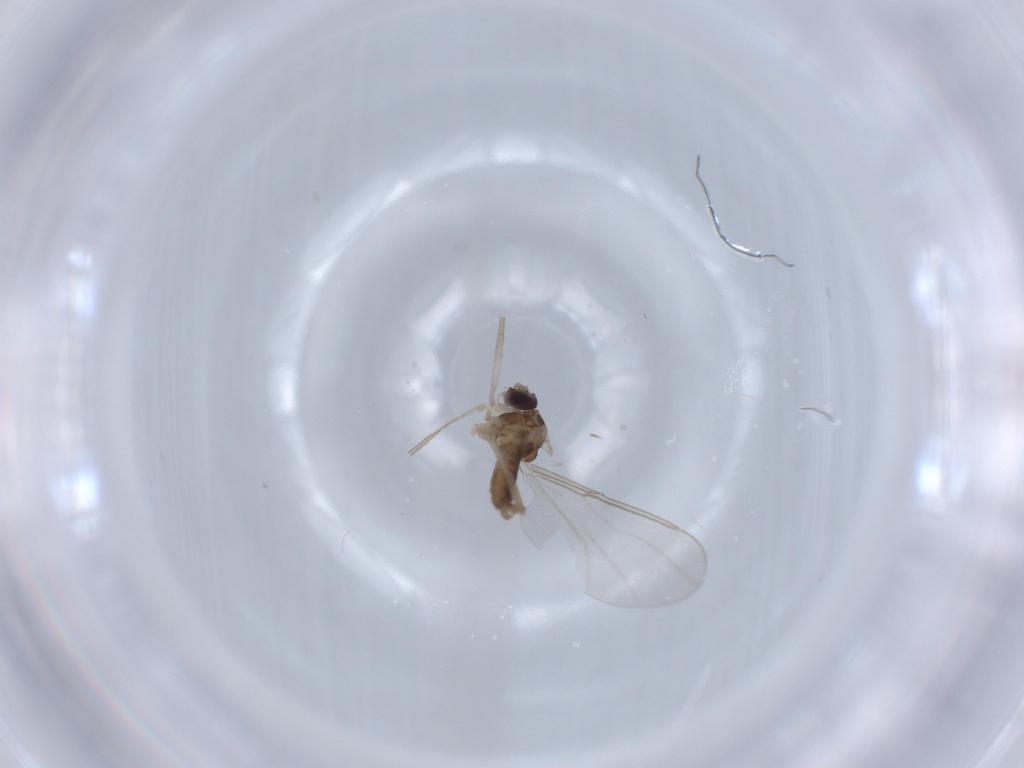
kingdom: Animalia
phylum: Arthropoda
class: Insecta
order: Diptera
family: Cecidomyiidae
